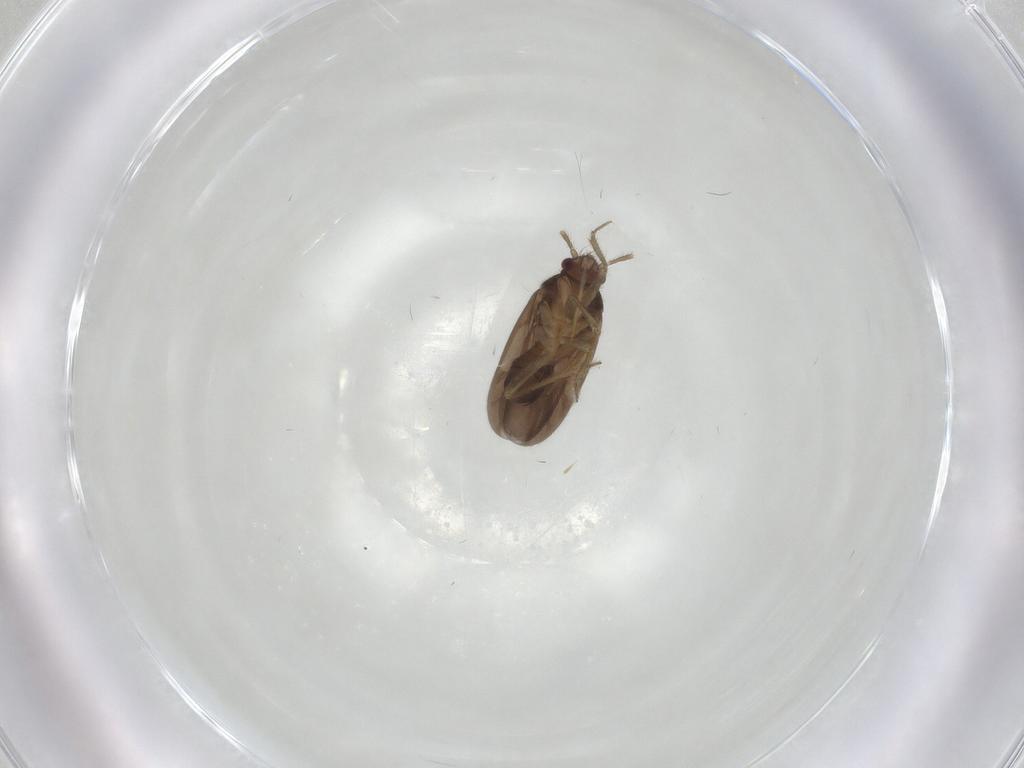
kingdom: Animalia
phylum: Arthropoda
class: Insecta
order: Hemiptera
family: Ceratocombidae
